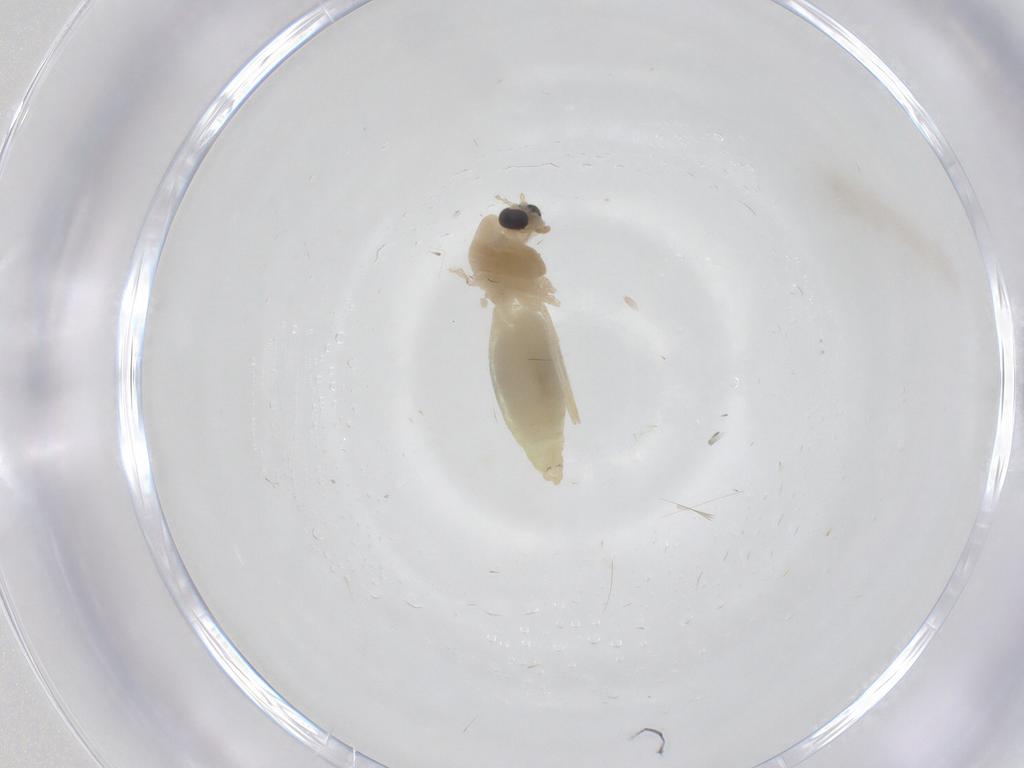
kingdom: Animalia
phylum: Arthropoda
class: Insecta
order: Diptera
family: Chironomidae
